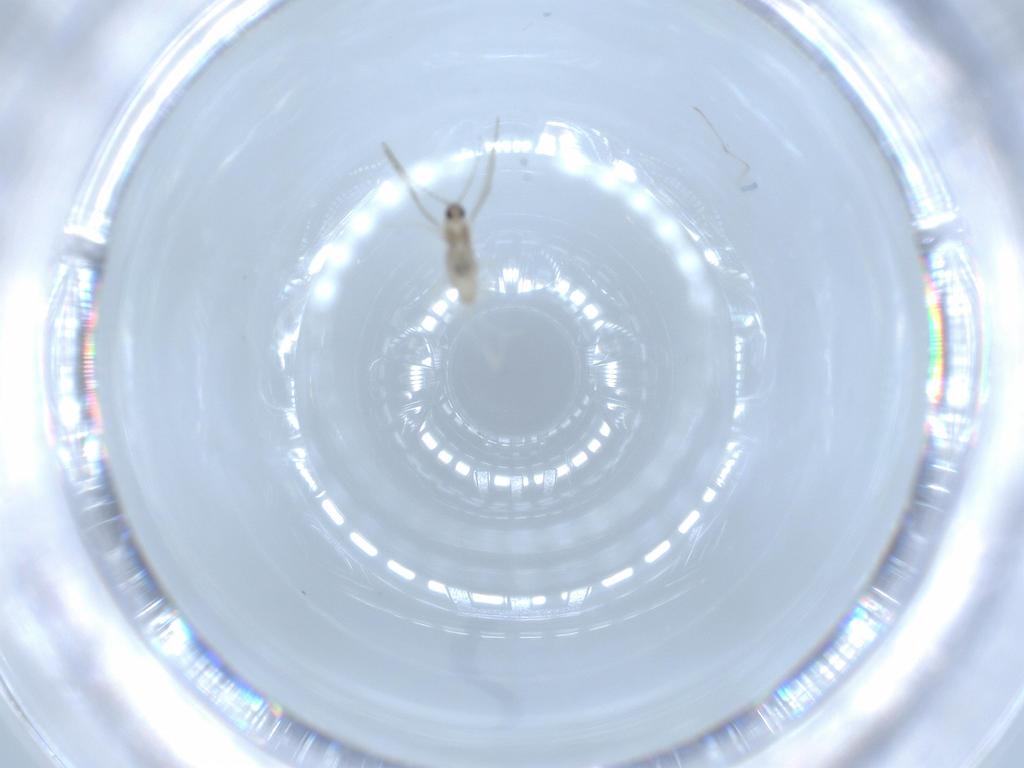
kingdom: Animalia
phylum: Arthropoda
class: Insecta
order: Diptera
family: Cecidomyiidae
